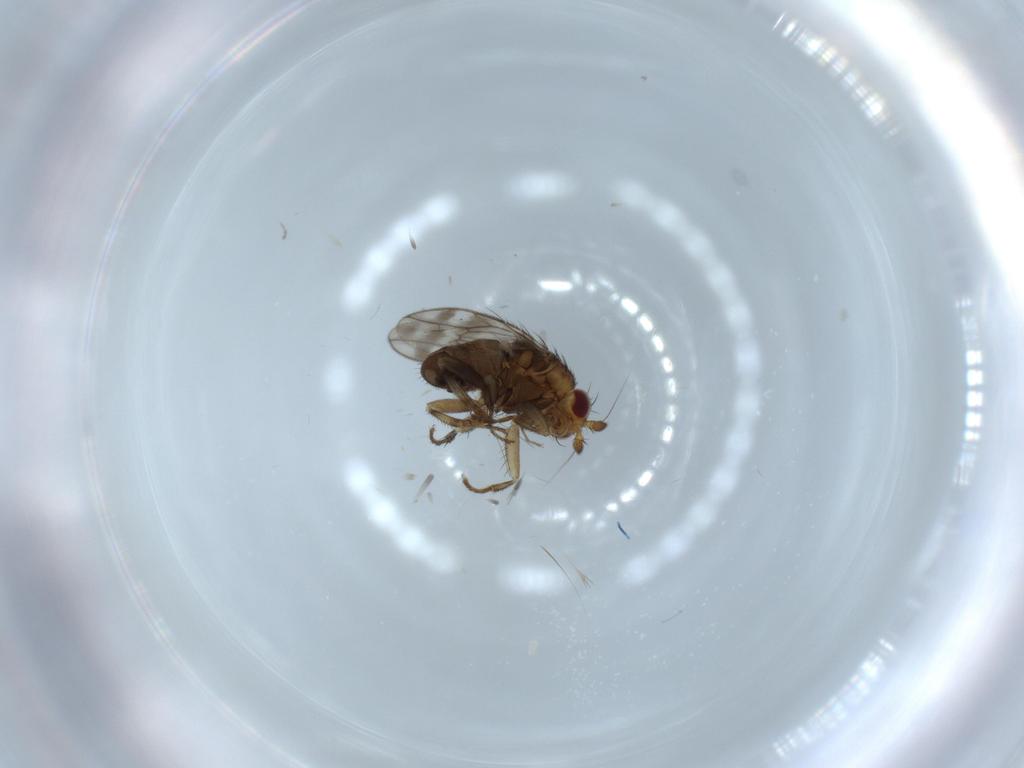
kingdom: Animalia
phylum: Arthropoda
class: Insecta
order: Diptera
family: Sphaeroceridae
